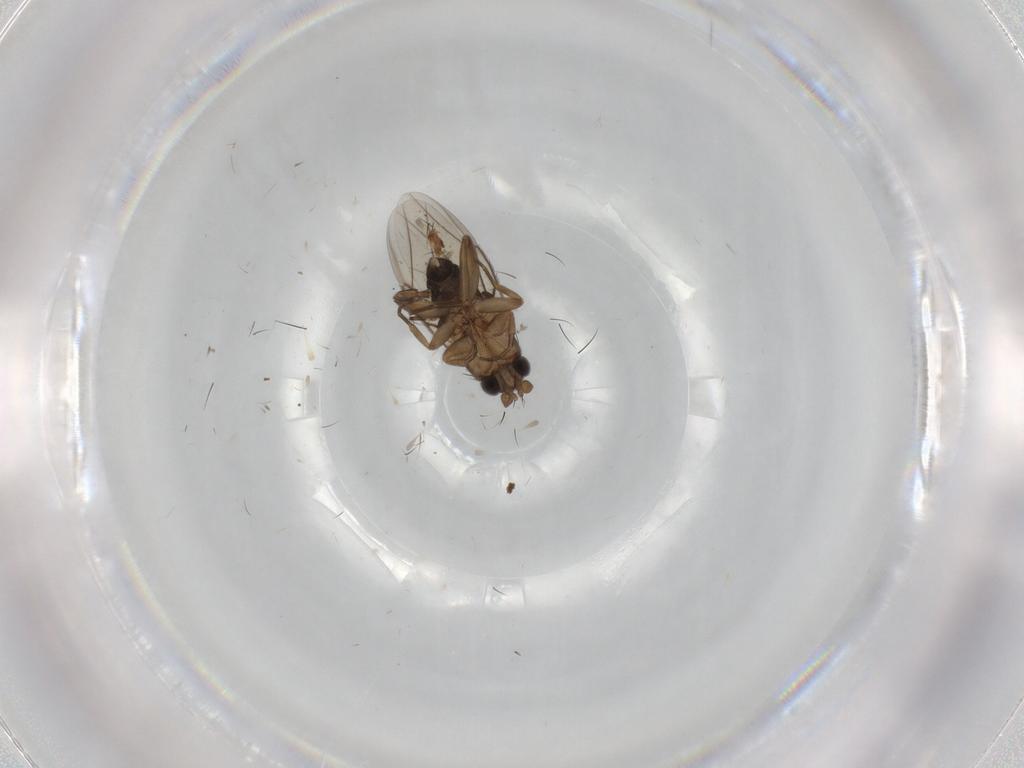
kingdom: Animalia
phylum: Arthropoda
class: Insecta
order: Diptera
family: Phoridae
